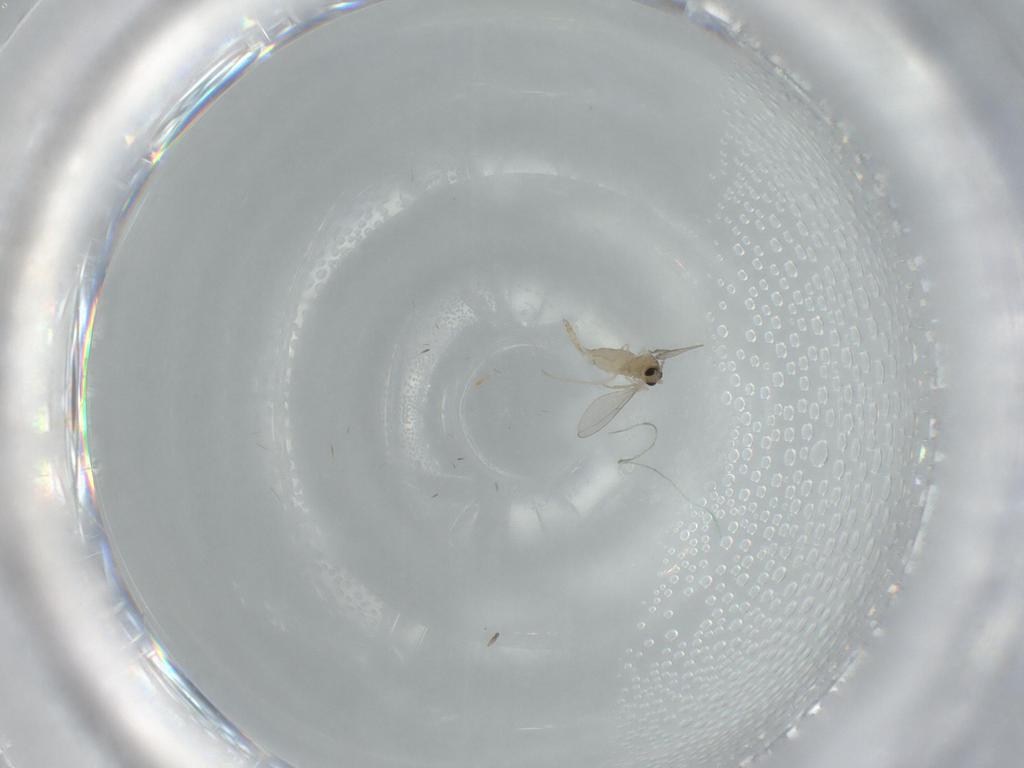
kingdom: Animalia
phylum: Arthropoda
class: Insecta
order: Diptera
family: Cecidomyiidae
